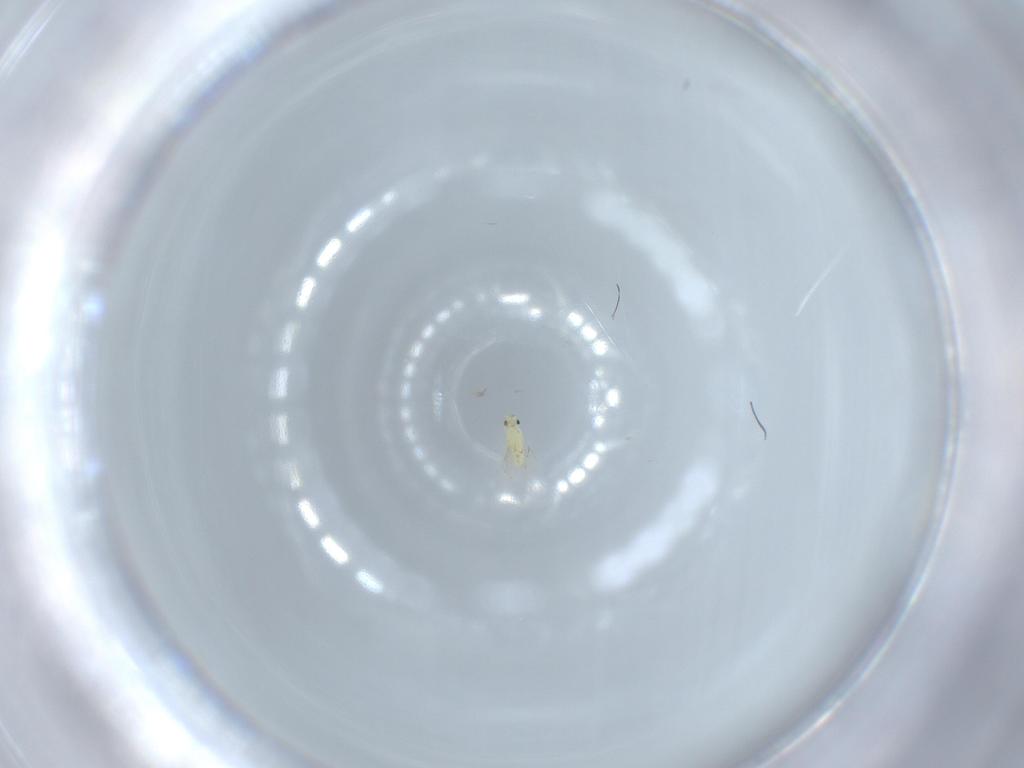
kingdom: Animalia
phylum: Arthropoda
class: Insecta
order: Hymenoptera
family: Trichogrammatidae
